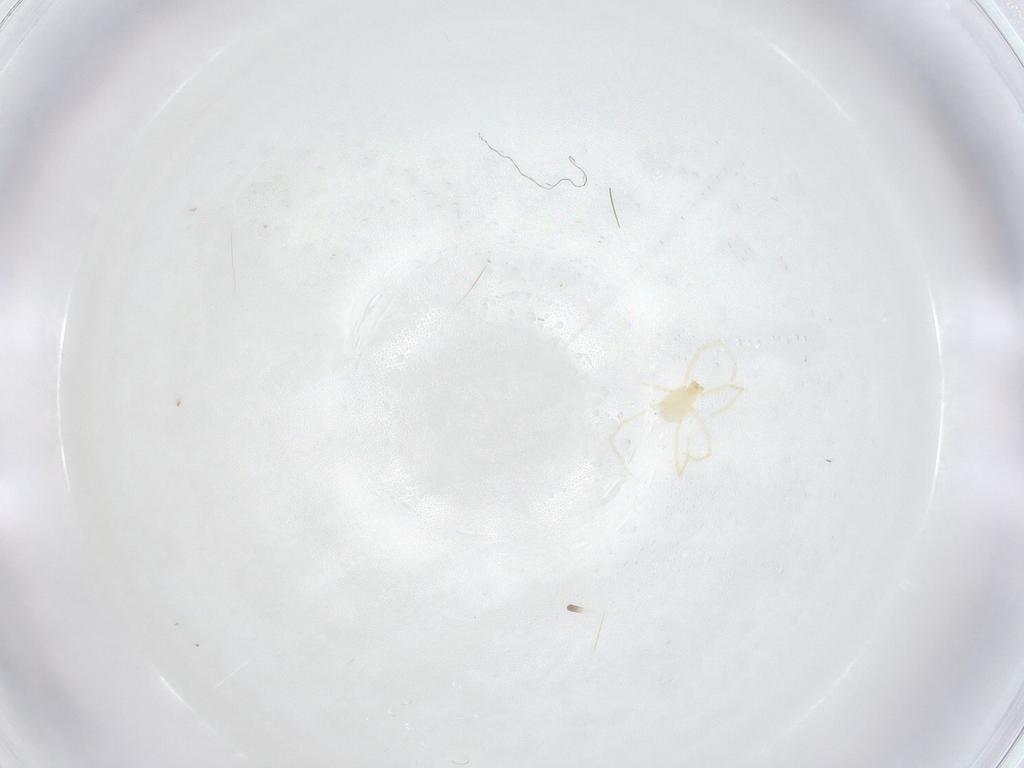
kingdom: Animalia
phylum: Arthropoda
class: Arachnida
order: Trombidiformes
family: Erythraeidae
